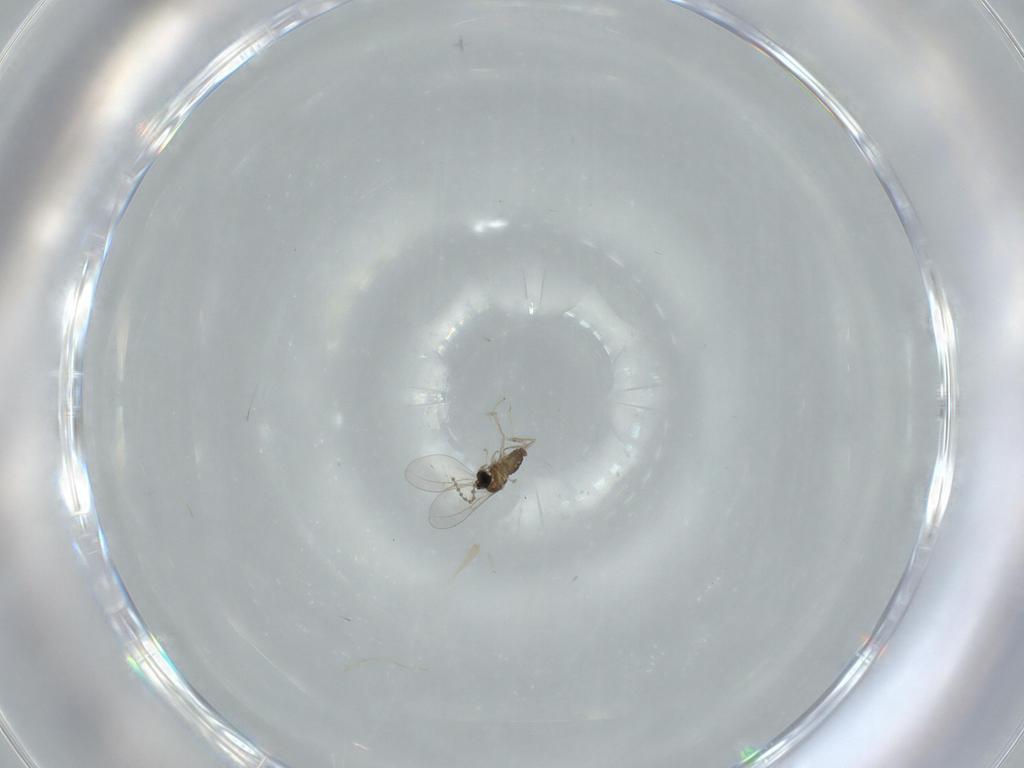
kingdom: Animalia
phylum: Arthropoda
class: Insecta
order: Diptera
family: Cecidomyiidae
